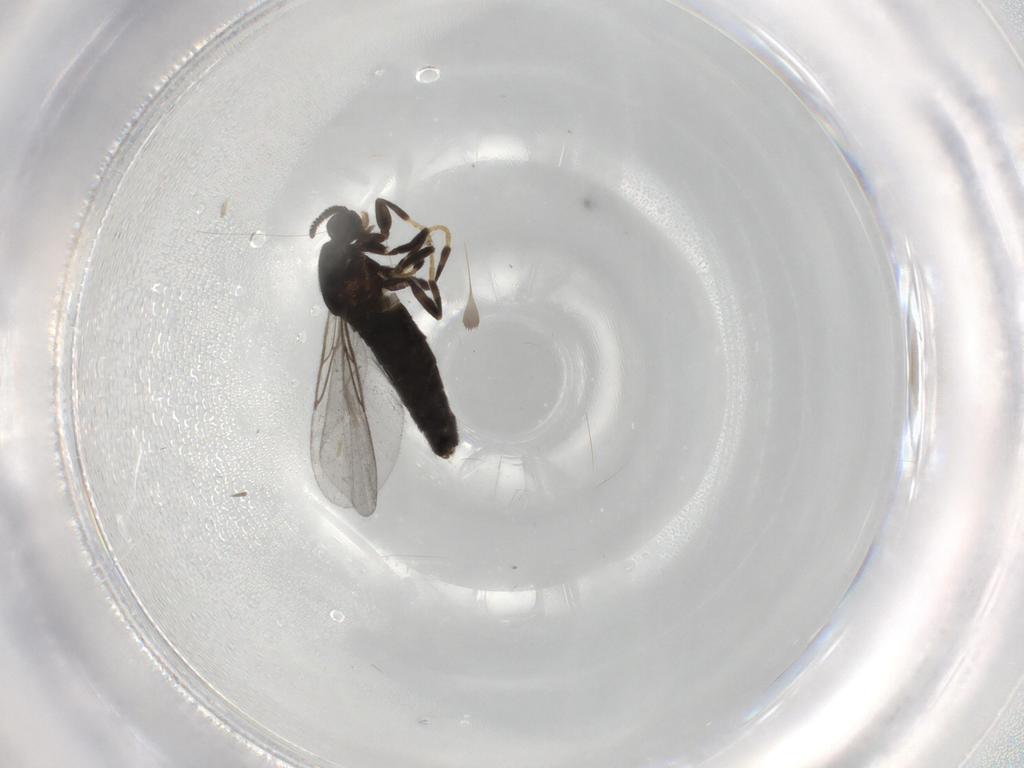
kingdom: Animalia
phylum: Arthropoda
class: Insecta
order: Diptera
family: Scatopsidae
